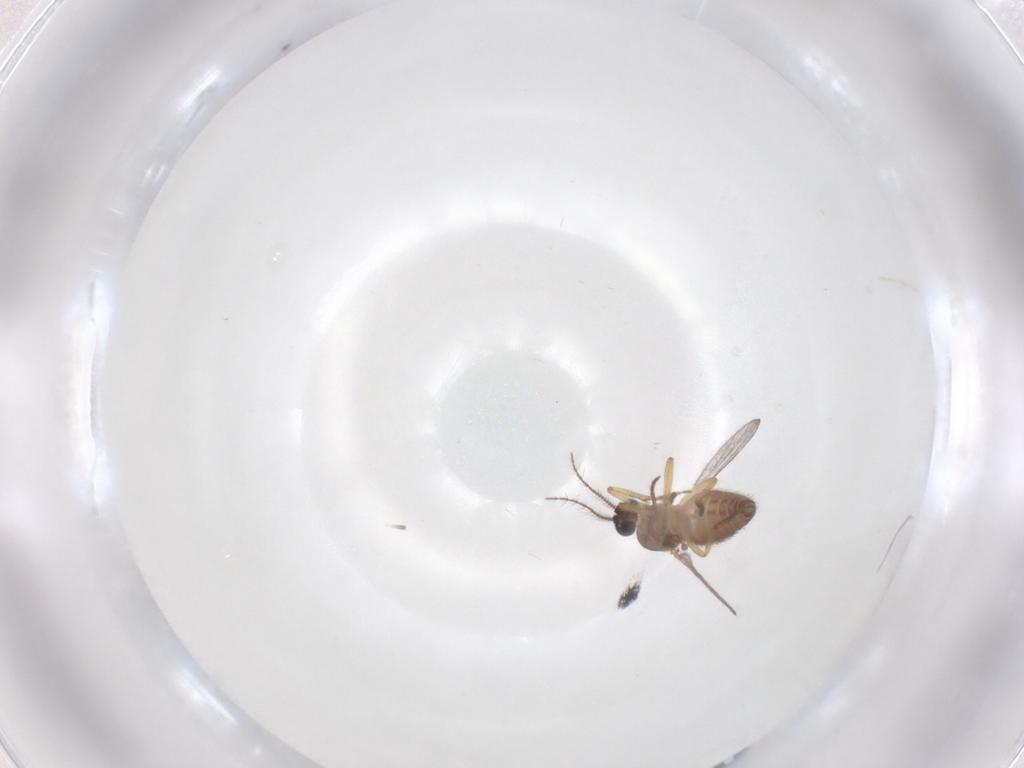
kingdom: Animalia
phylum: Arthropoda
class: Insecta
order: Diptera
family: Ceratopogonidae
